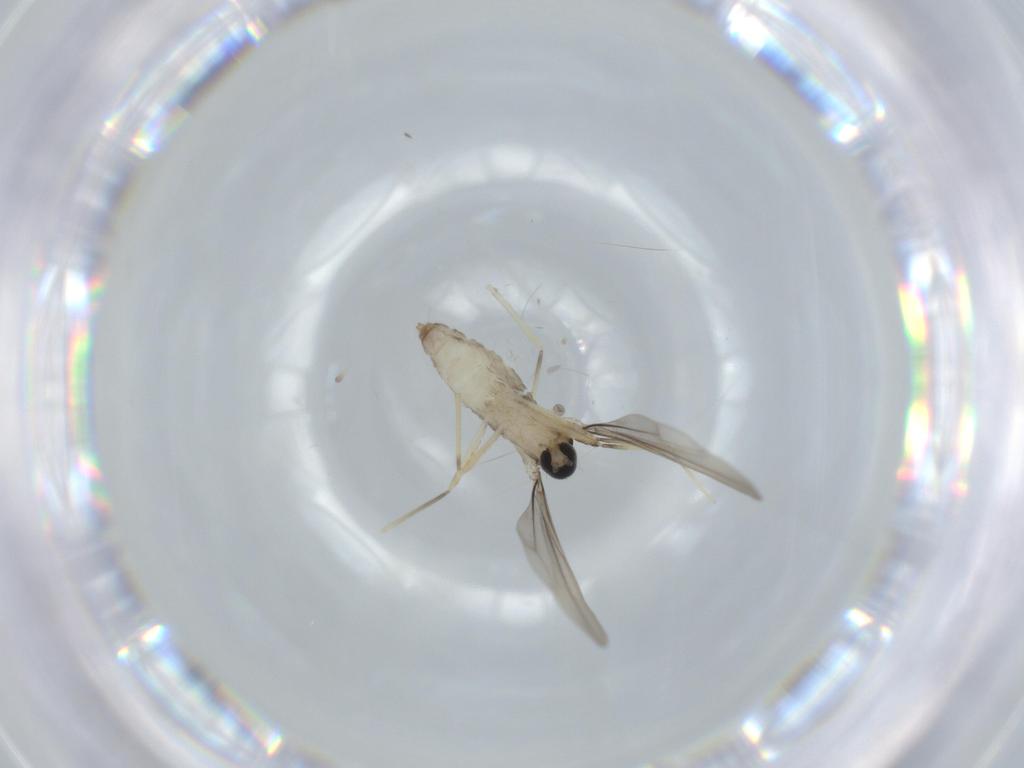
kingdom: Animalia
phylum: Arthropoda
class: Insecta
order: Diptera
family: Cecidomyiidae
